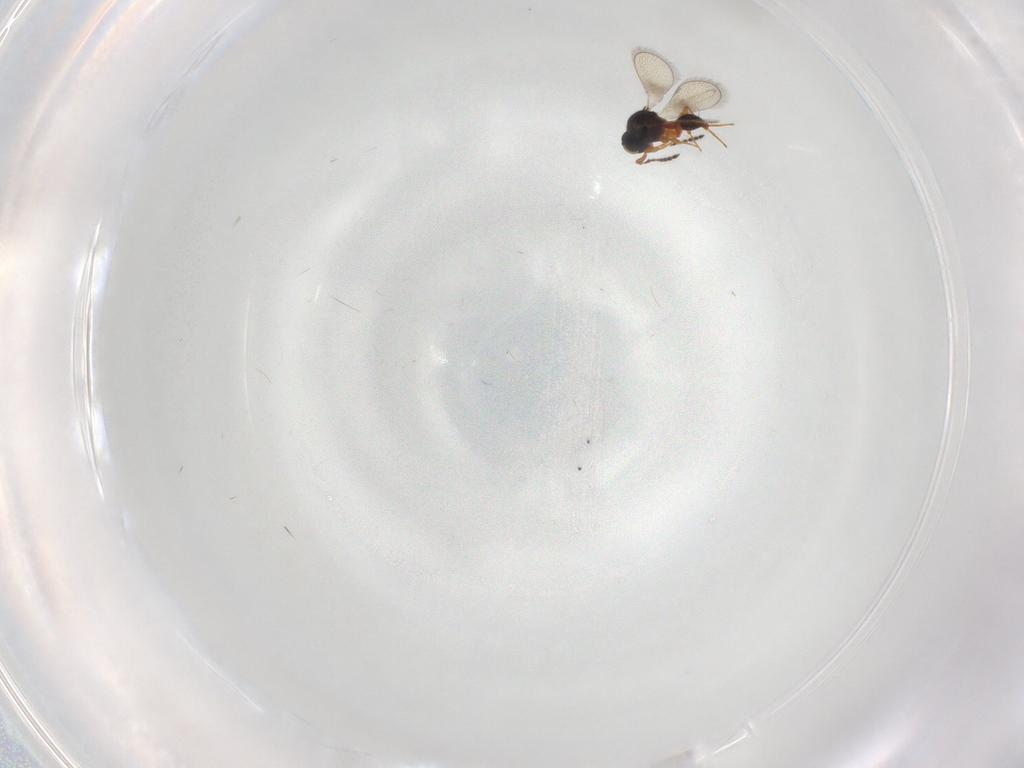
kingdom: Animalia
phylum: Arthropoda
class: Insecta
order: Hymenoptera
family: Platygastridae
